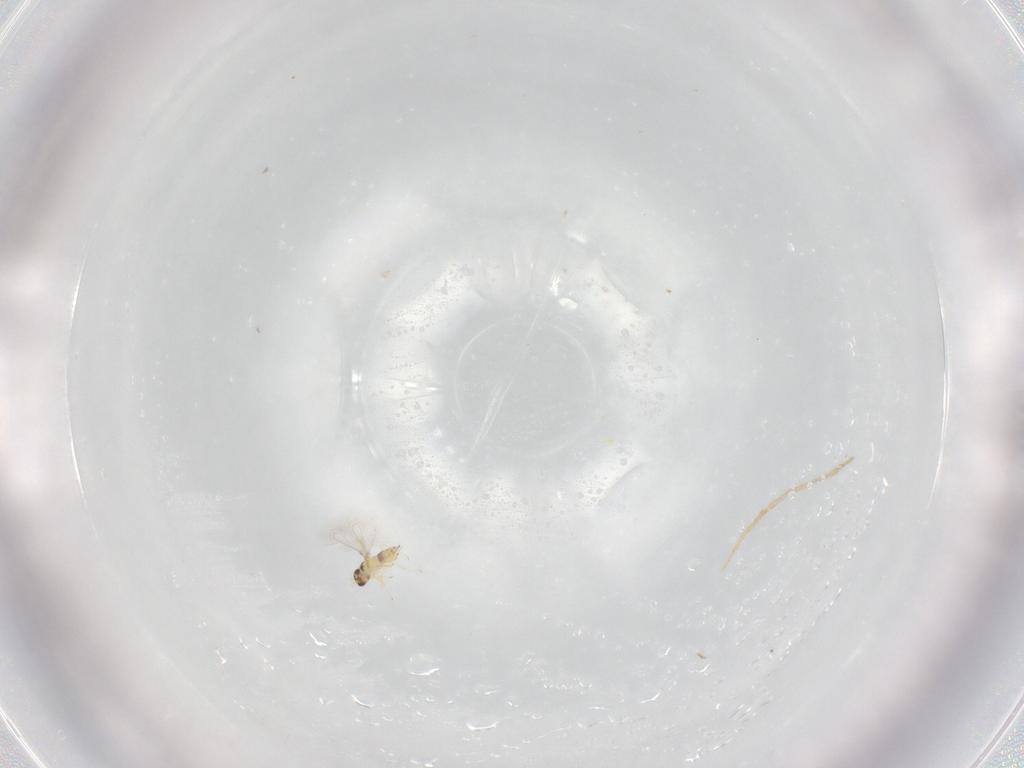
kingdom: Animalia
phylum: Arthropoda
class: Insecta
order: Hymenoptera
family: Mymaridae
